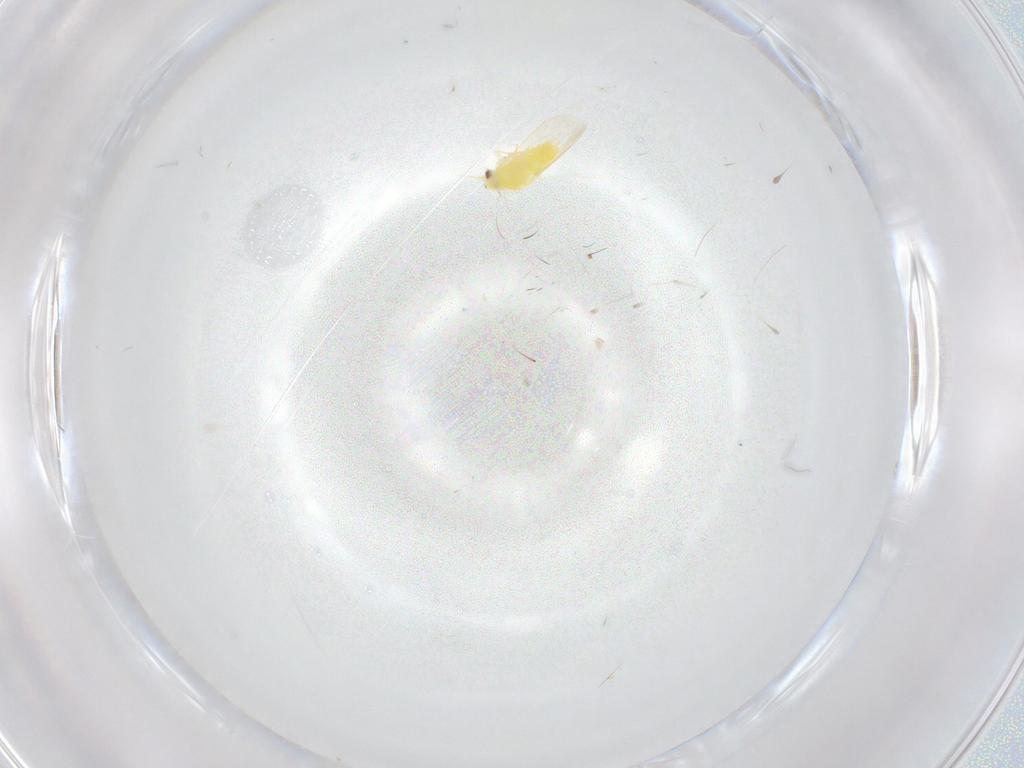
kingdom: Animalia
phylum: Arthropoda
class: Insecta
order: Hemiptera
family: Aleyrodidae
